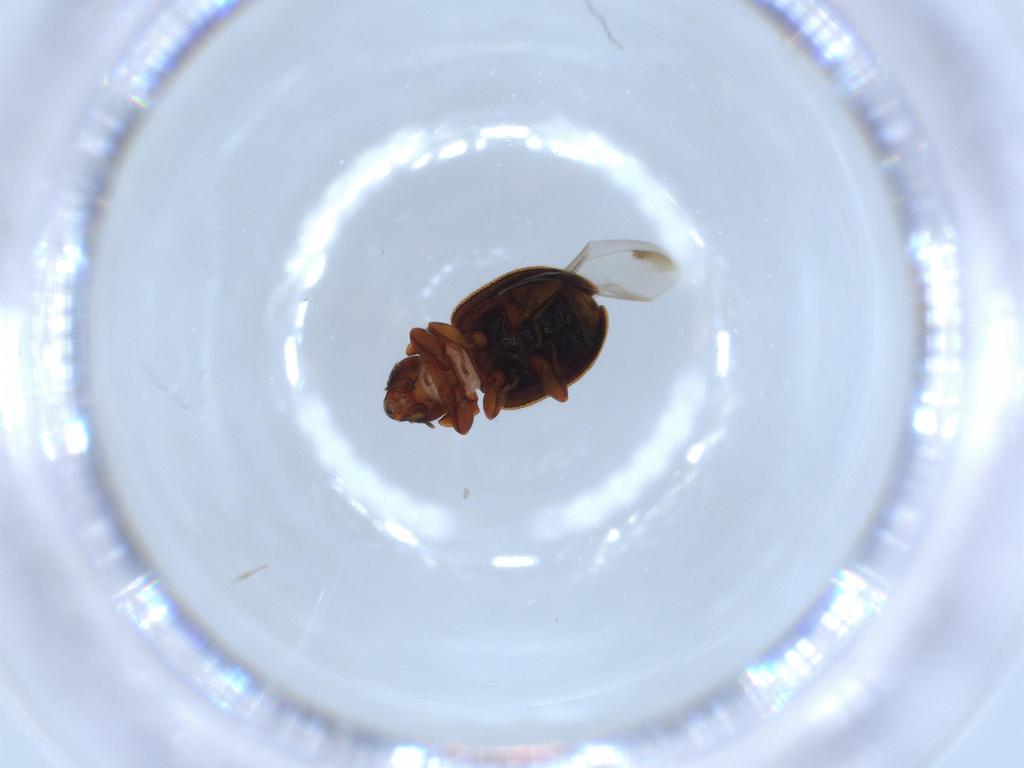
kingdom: Animalia
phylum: Arthropoda
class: Insecta
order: Coleoptera
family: Coccinellidae
